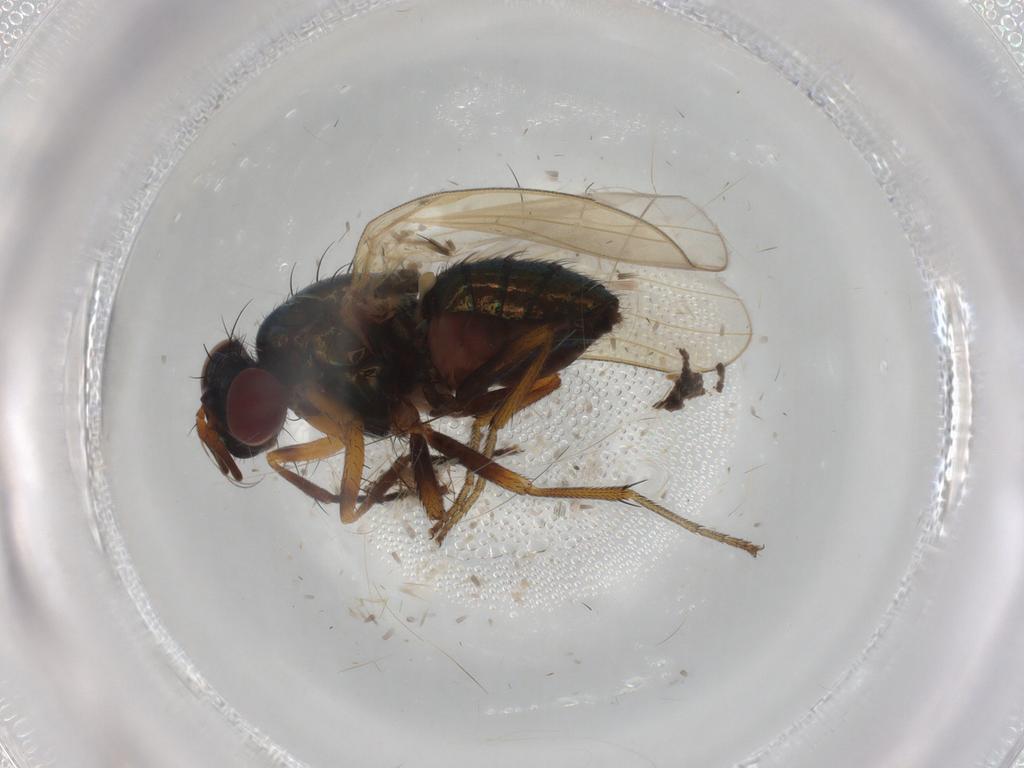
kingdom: Animalia
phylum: Arthropoda
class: Insecta
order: Diptera
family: Lauxaniidae
